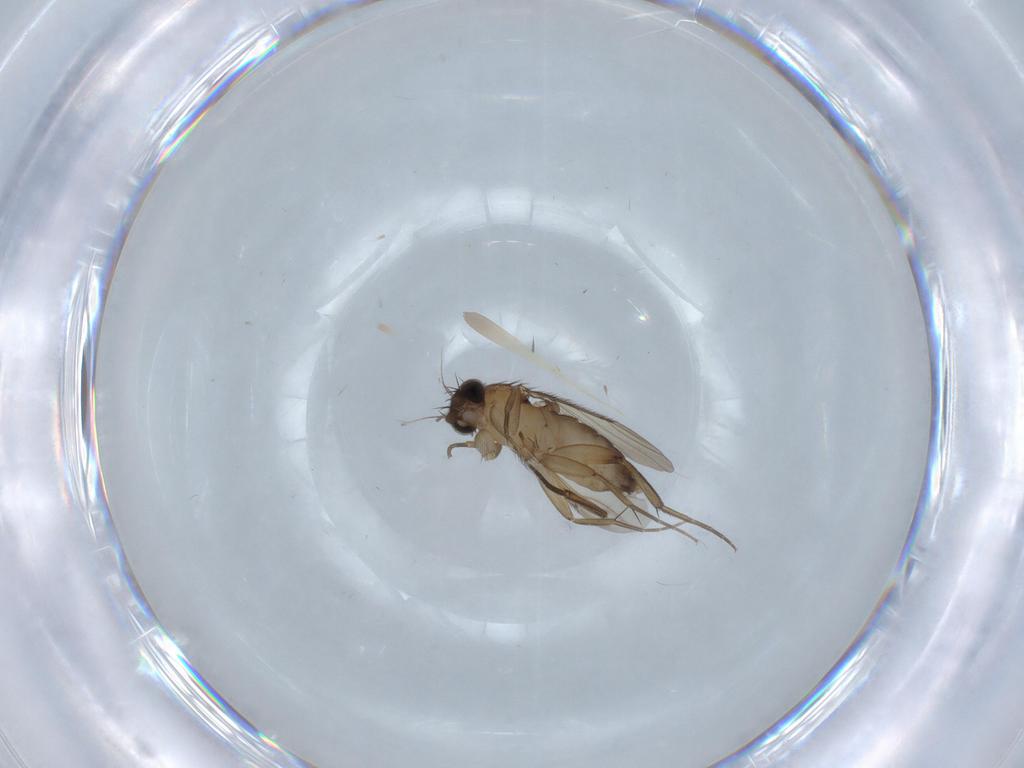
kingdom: Animalia
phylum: Arthropoda
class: Insecta
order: Diptera
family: Phoridae
